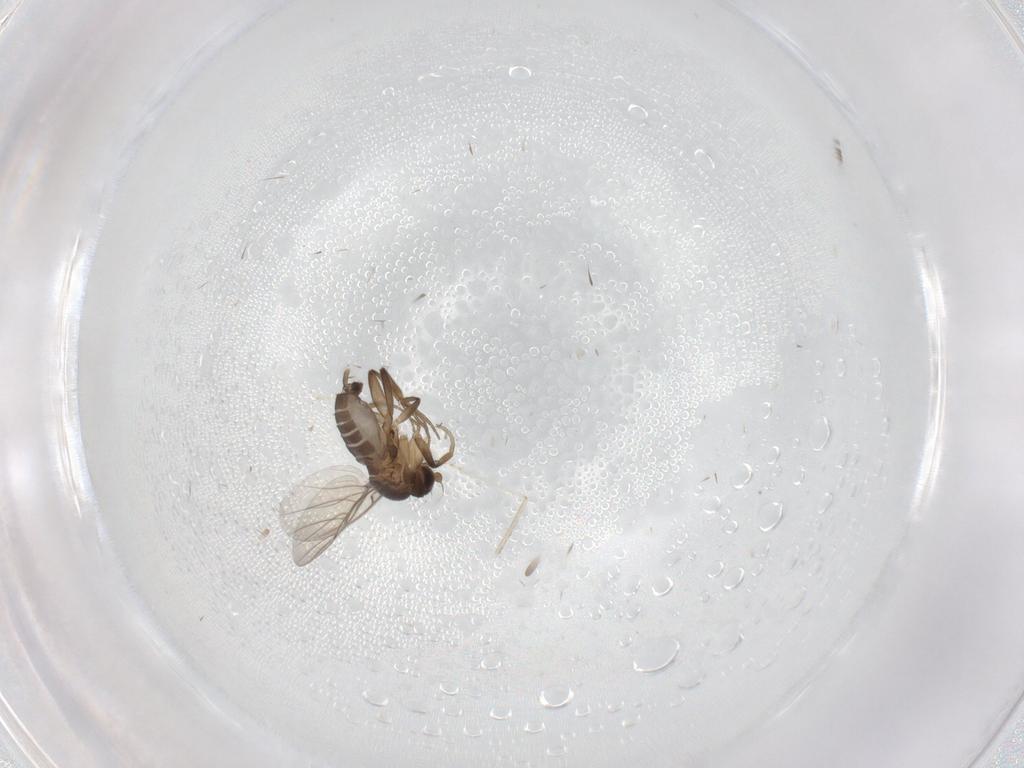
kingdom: Animalia
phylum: Arthropoda
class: Insecta
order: Diptera
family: Cecidomyiidae
